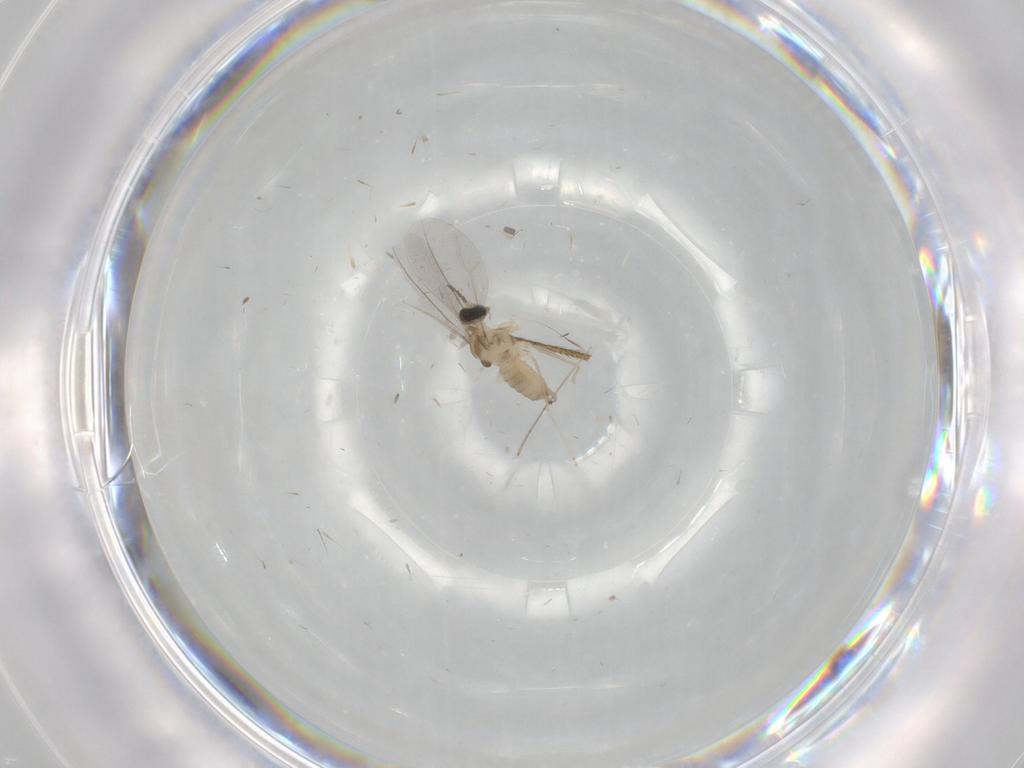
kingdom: Animalia
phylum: Arthropoda
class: Insecta
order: Diptera
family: Cecidomyiidae
